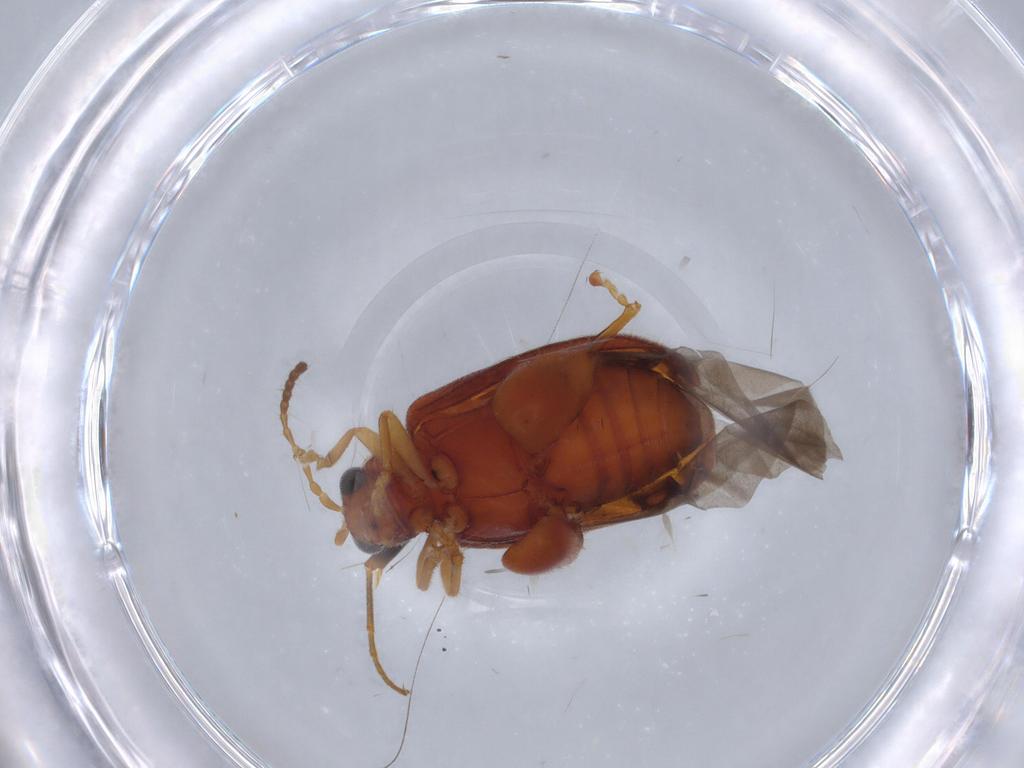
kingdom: Animalia
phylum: Arthropoda
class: Insecta
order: Coleoptera
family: Chrysomelidae
